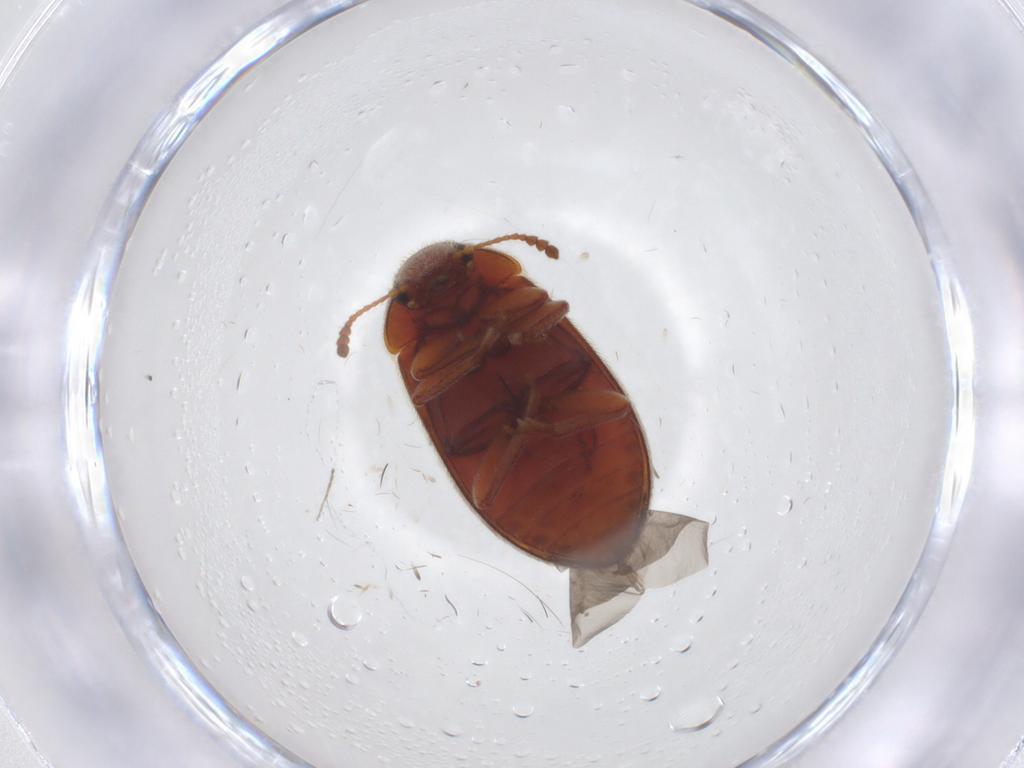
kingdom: Animalia
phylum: Arthropoda
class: Insecta
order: Coleoptera
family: Byturidae
